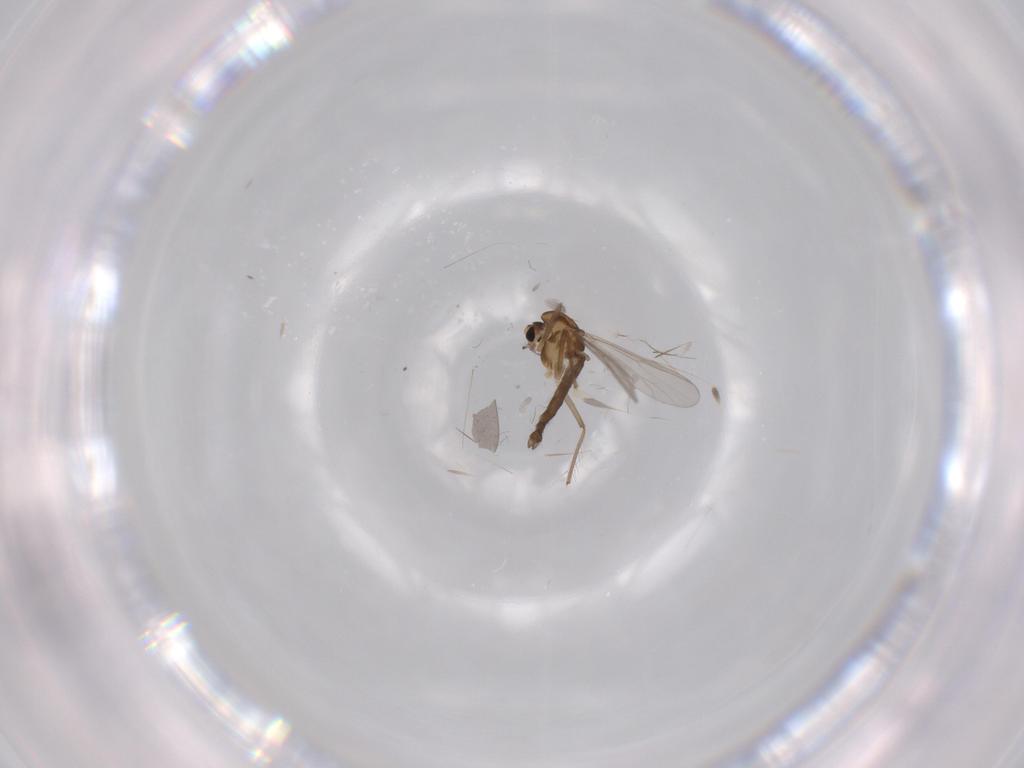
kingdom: Animalia
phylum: Arthropoda
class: Insecta
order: Diptera
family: Chironomidae
